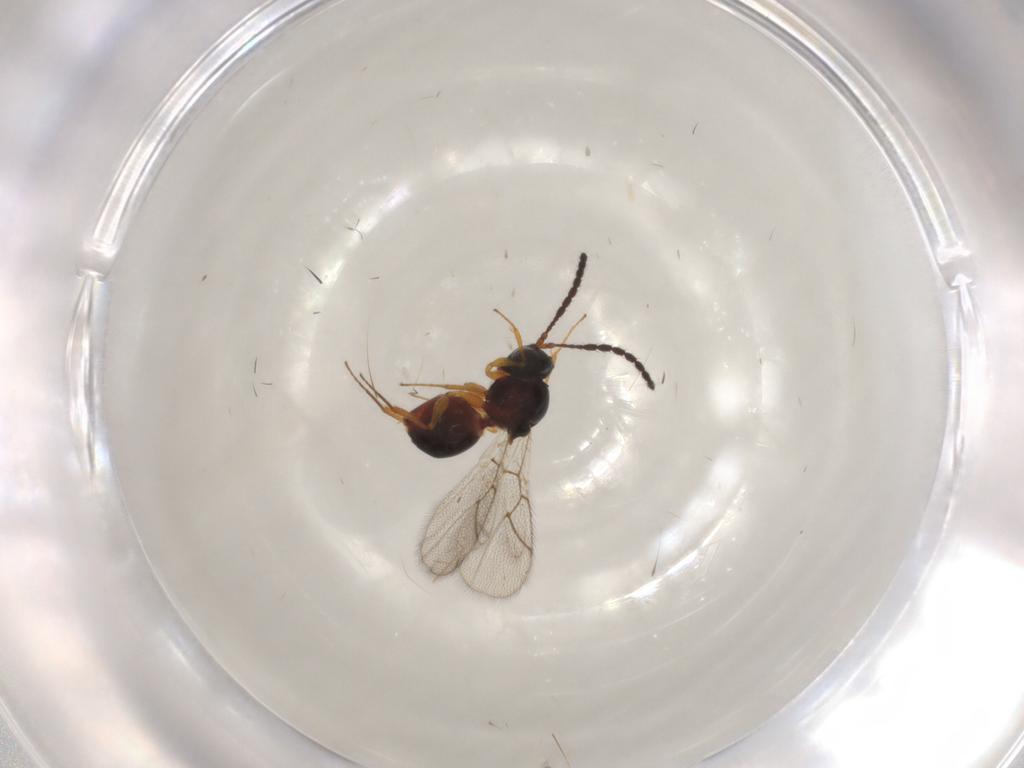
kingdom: Animalia
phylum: Arthropoda
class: Insecta
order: Hymenoptera
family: Figitidae
